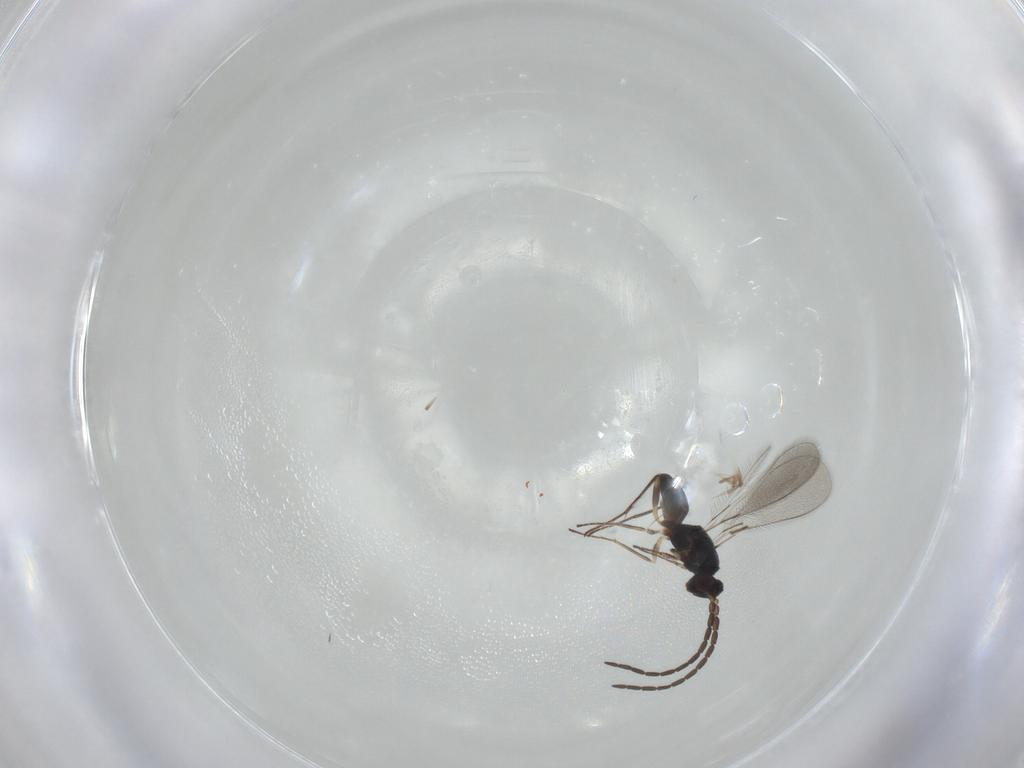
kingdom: Animalia
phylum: Arthropoda
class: Insecta
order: Hymenoptera
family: Mymaridae
